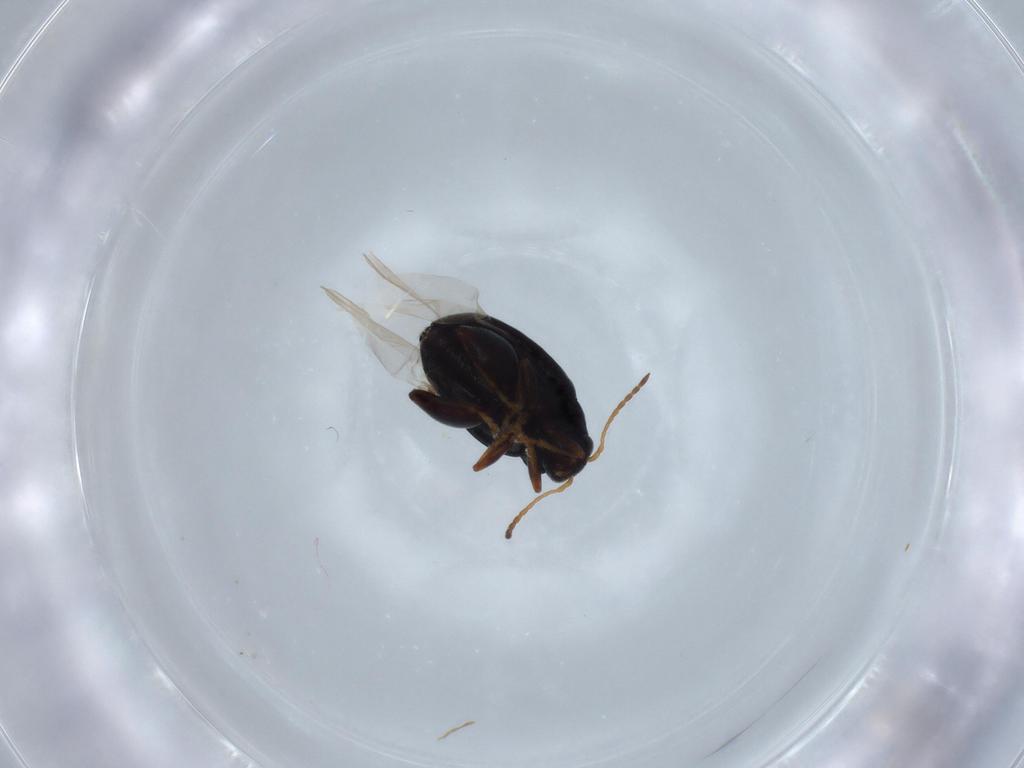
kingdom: Animalia
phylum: Arthropoda
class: Insecta
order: Coleoptera
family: Chrysomelidae
